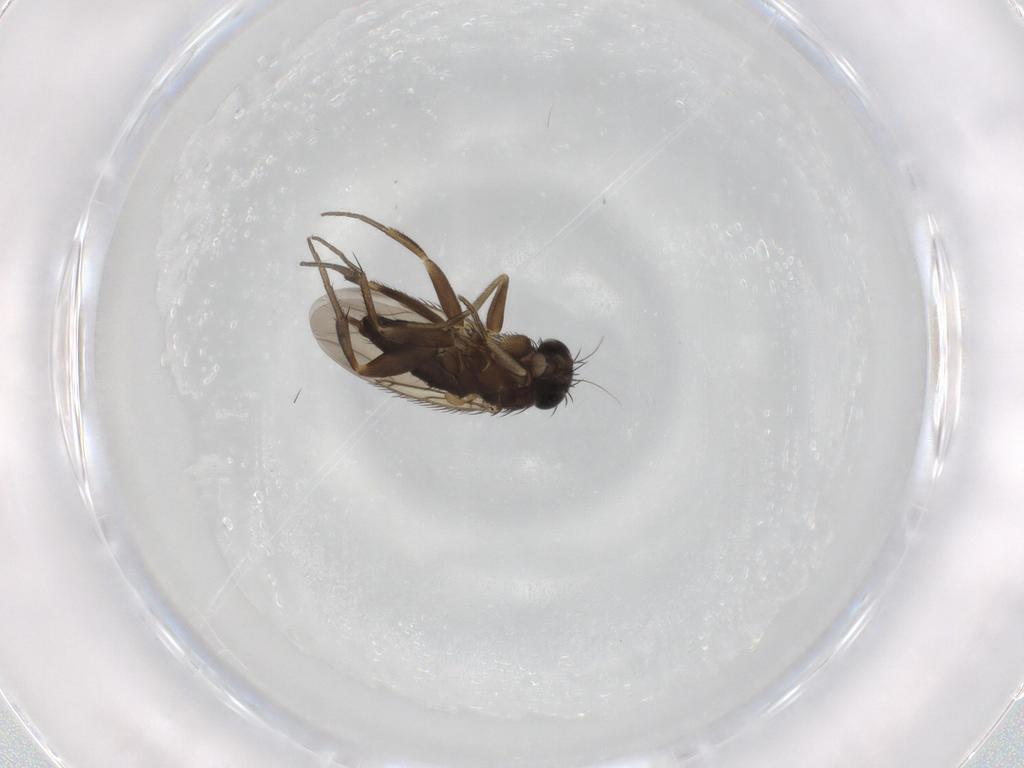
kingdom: Animalia
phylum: Arthropoda
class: Insecta
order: Diptera
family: Phoridae
